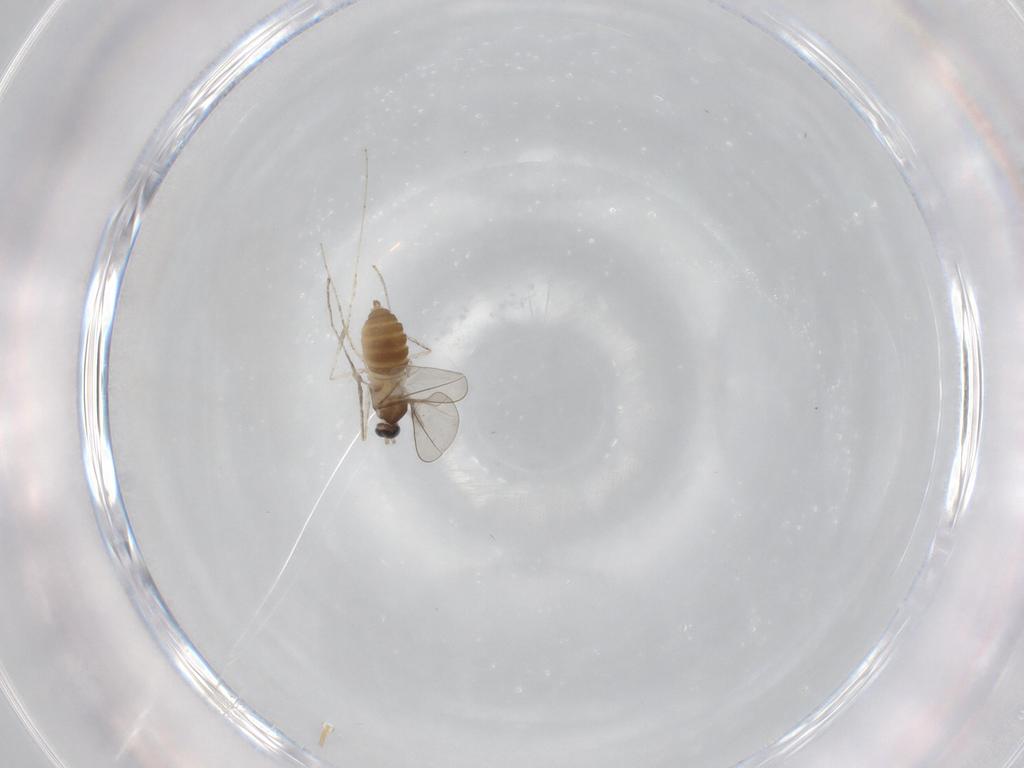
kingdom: Animalia
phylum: Arthropoda
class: Insecta
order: Diptera
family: Cecidomyiidae
